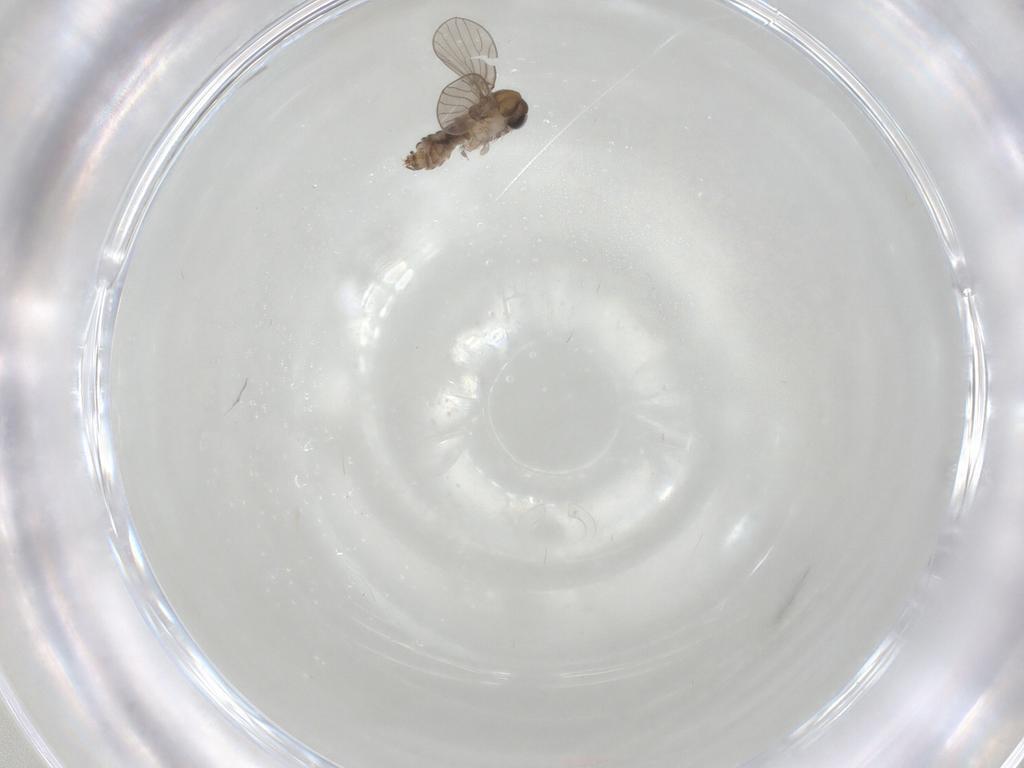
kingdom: Animalia
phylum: Arthropoda
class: Insecta
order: Diptera
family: Psychodidae
